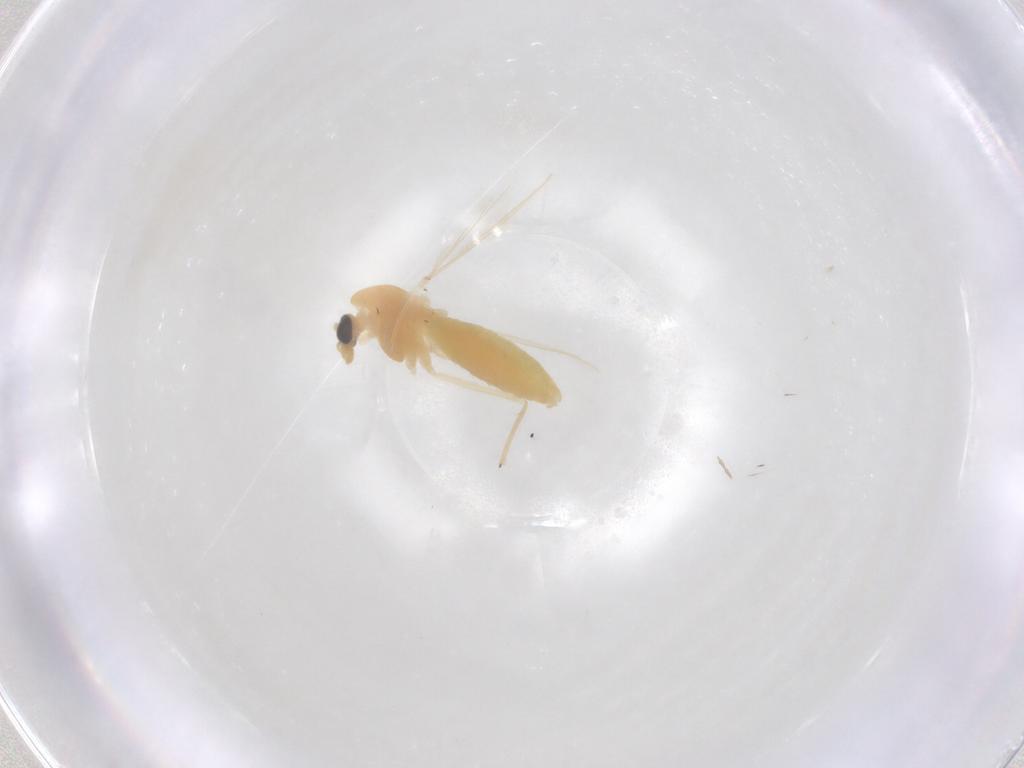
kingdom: Animalia
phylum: Arthropoda
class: Insecta
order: Diptera
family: Chironomidae
